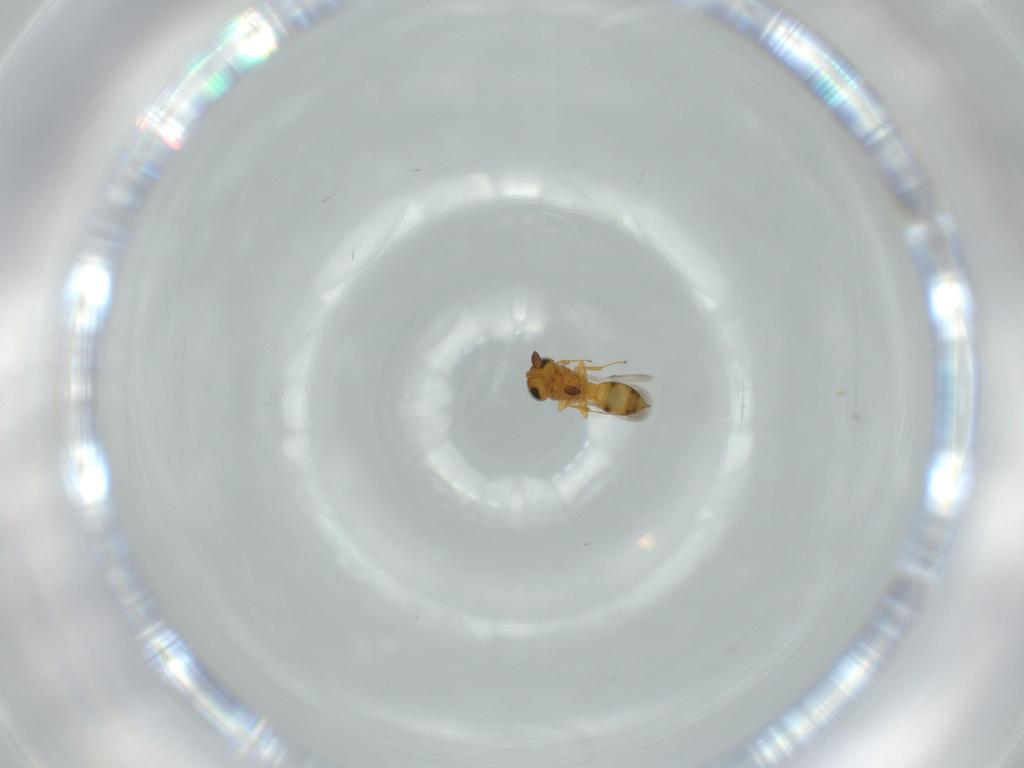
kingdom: Animalia
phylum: Arthropoda
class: Insecta
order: Hymenoptera
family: Scelionidae
